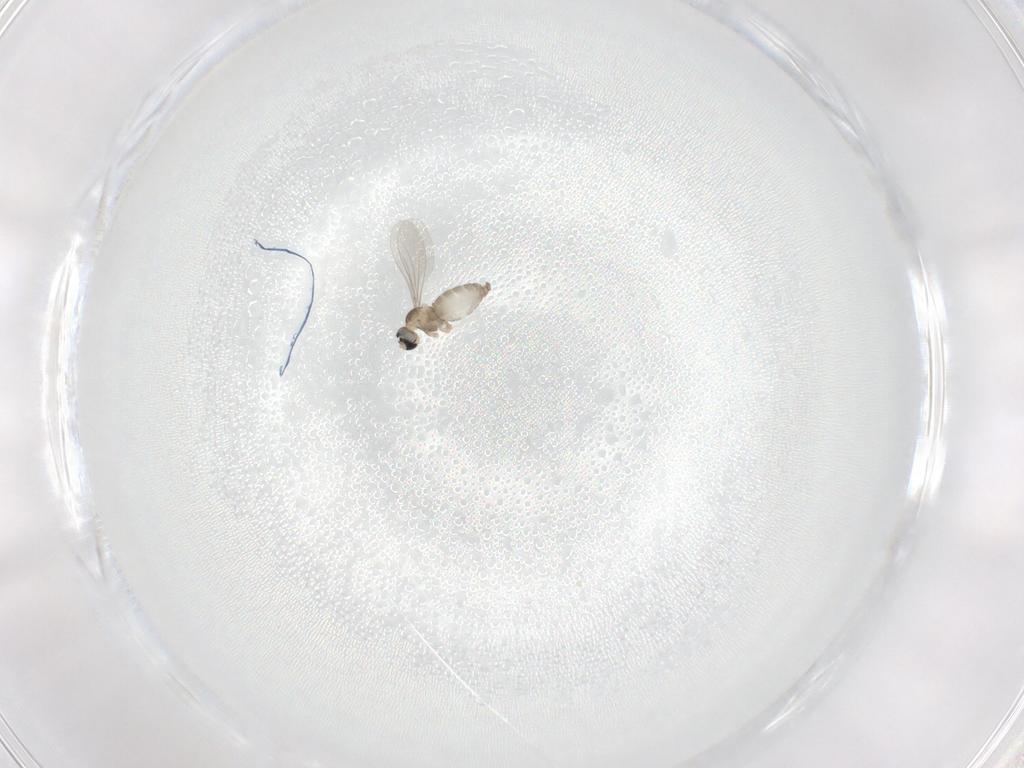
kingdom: Animalia
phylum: Arthropoda
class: Insecta
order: Diptera
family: Cecidomyiidae
